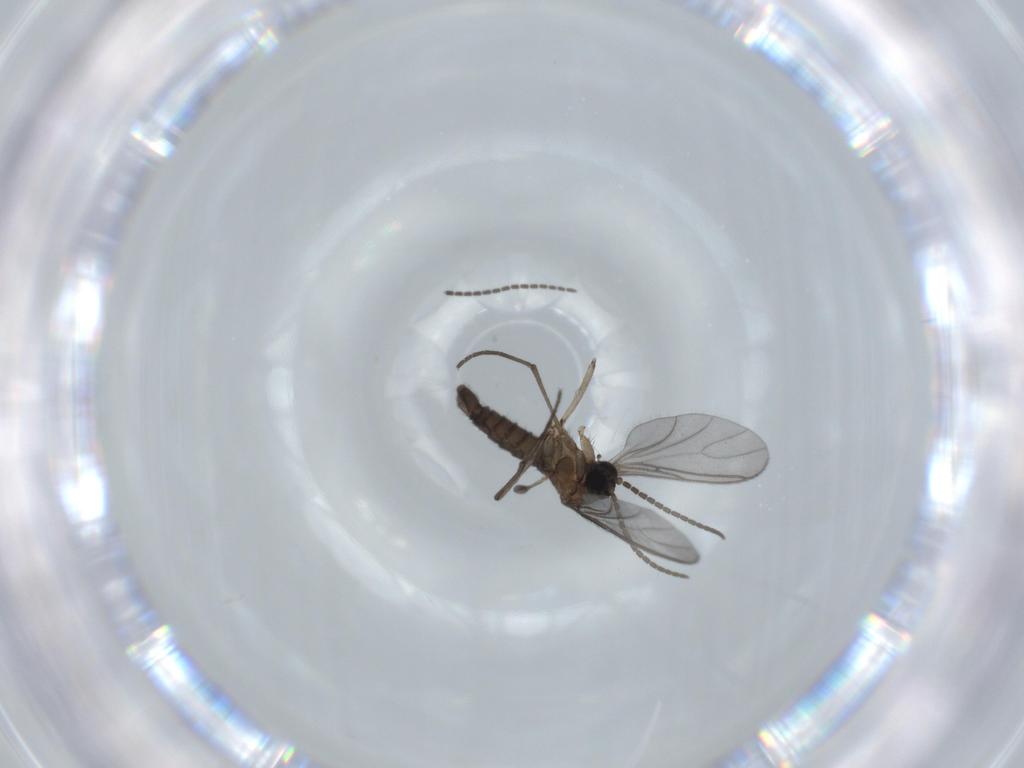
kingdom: Animalia
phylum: Arthropoda
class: Insecta
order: Diptera
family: Sciaridae
